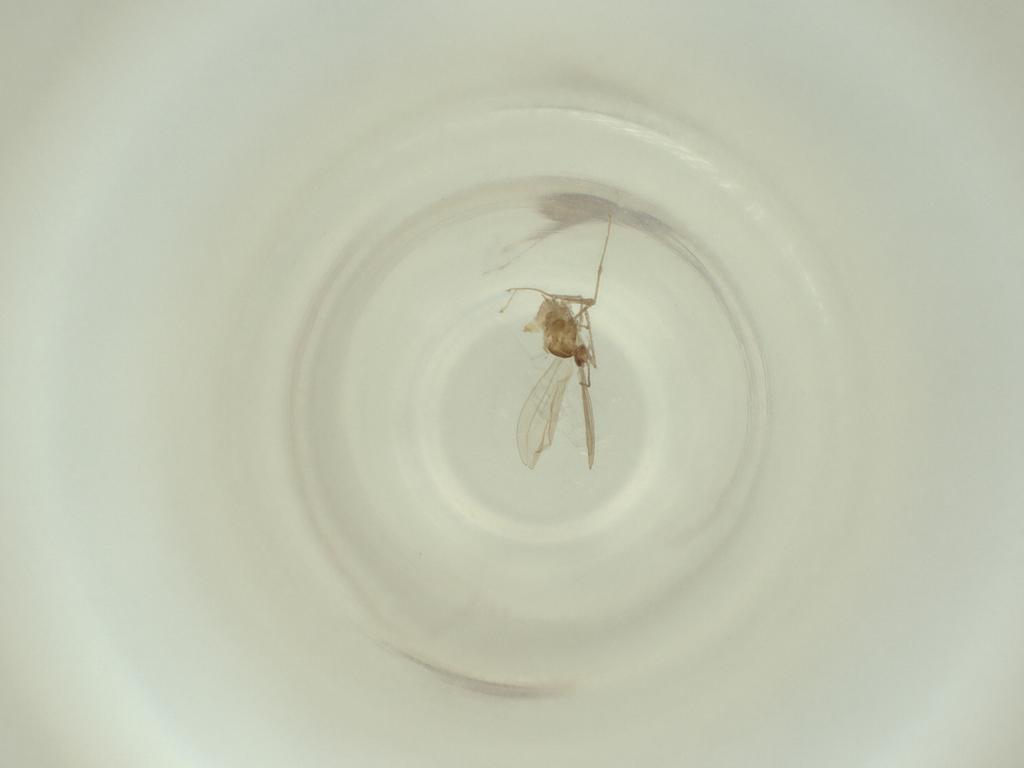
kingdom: Animalia
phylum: Arthropoda
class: Insecta
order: Diptera
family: Cecidomyiidae
